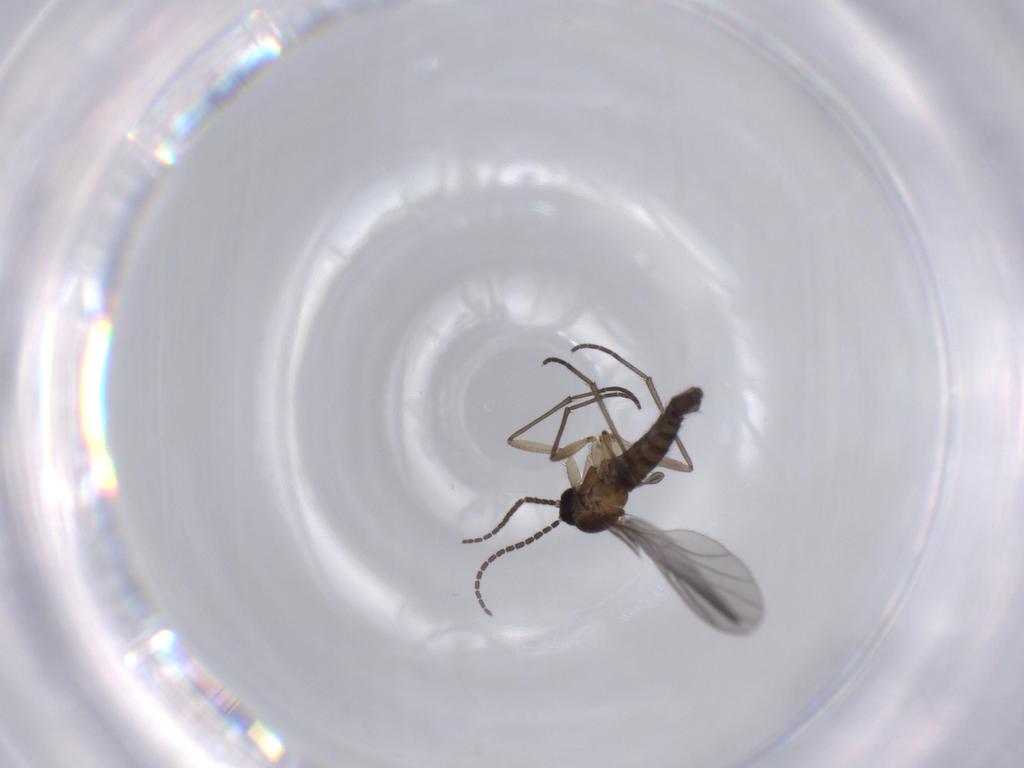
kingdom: Animalia
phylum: Arthropoda
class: Insecta
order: Diptera
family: Sciaridae
